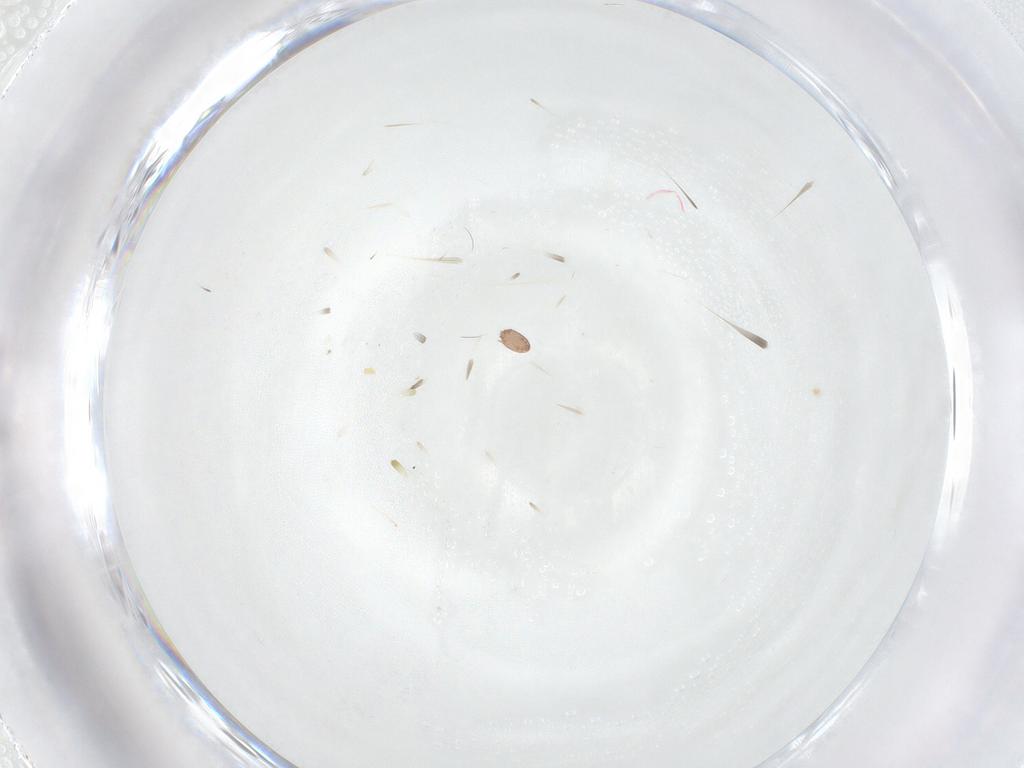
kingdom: Animalia
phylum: Arthropoda
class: Insecta
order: Diptera
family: Chironomidae
